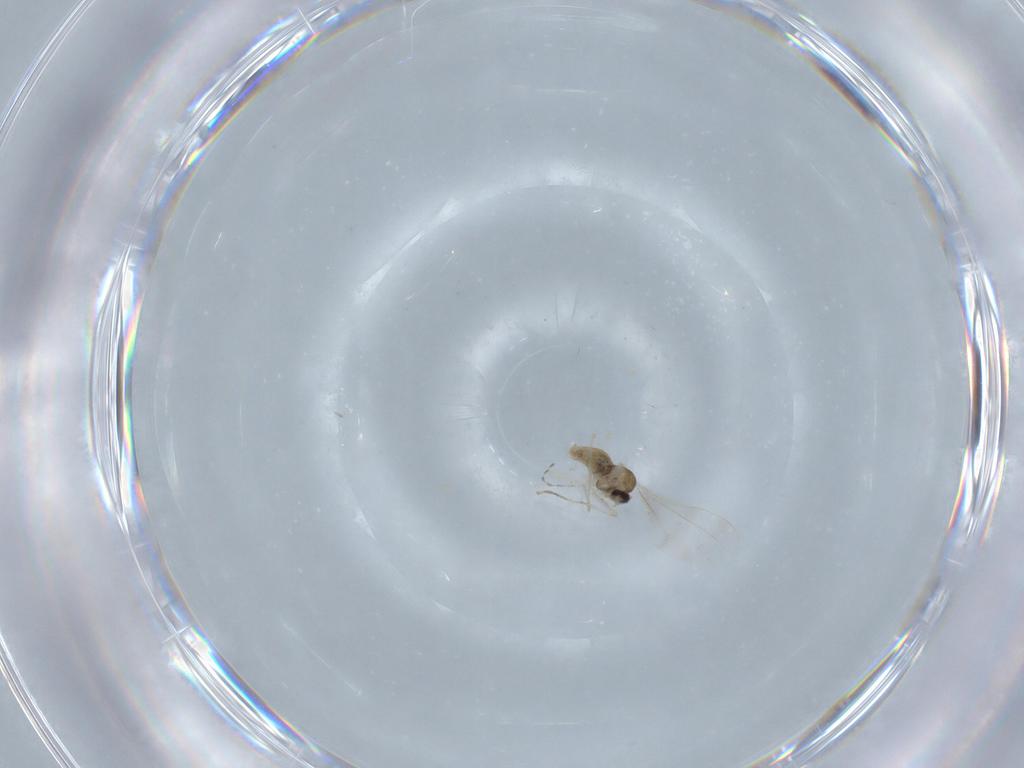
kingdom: Animalia
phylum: Arthropoda
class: Insecta
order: Diptera
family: Cecidomyiidae
